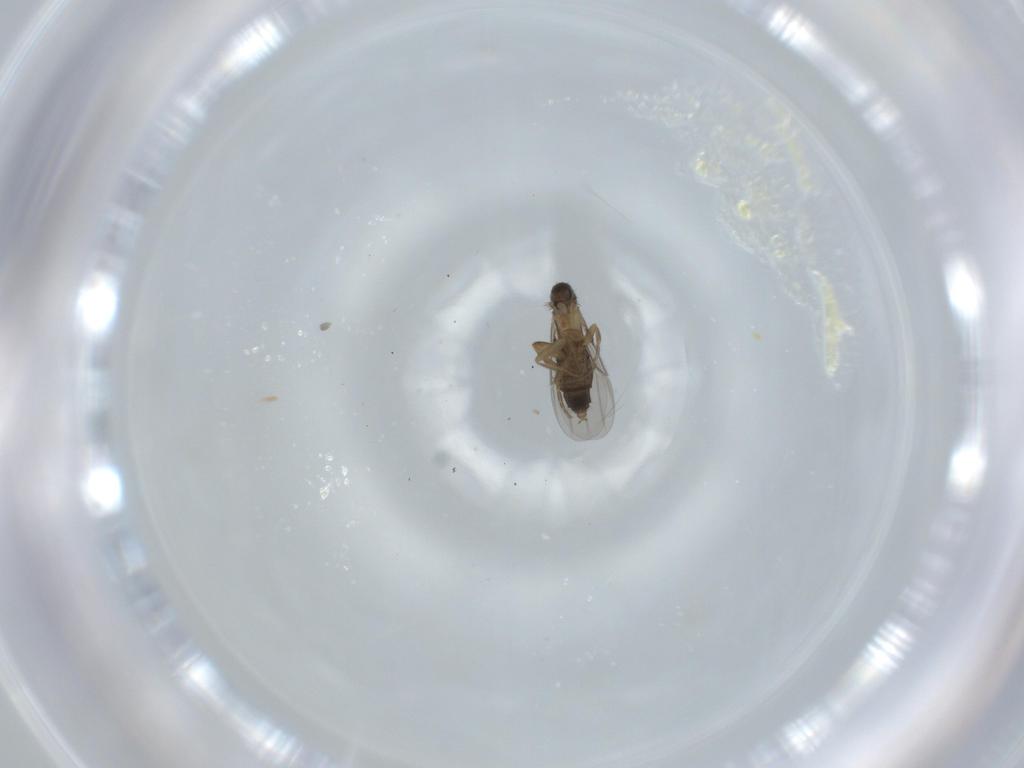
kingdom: Animalia
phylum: Arthropoda
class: Insecta
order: Diptera
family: Phoridae
